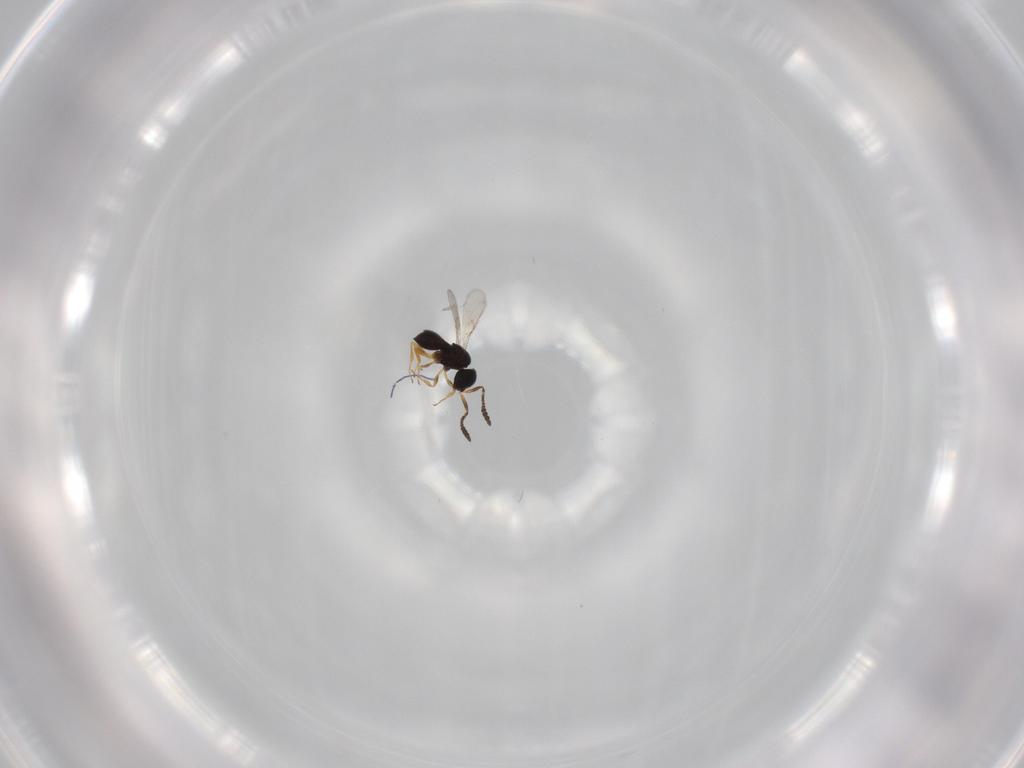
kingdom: Animalia
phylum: Arthropoda
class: Insecta
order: Hymenoptera
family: Scelionidae
